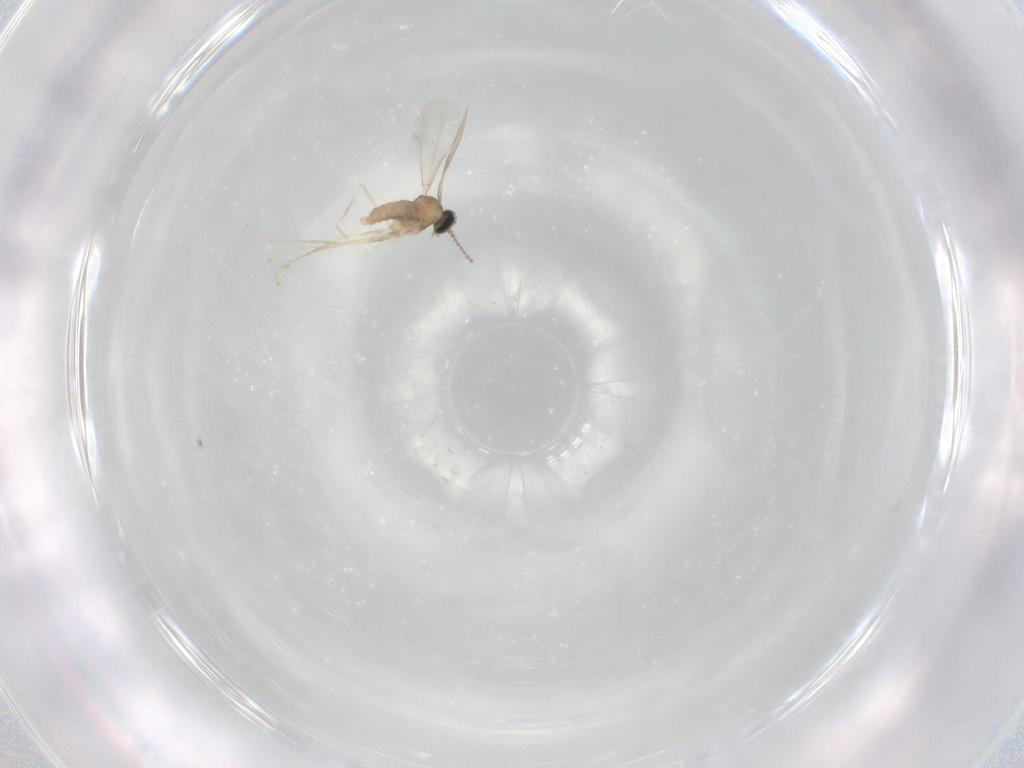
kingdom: Animalia
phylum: Arthropoda
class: Insecta
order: Diptera
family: Cecidomyiidae
